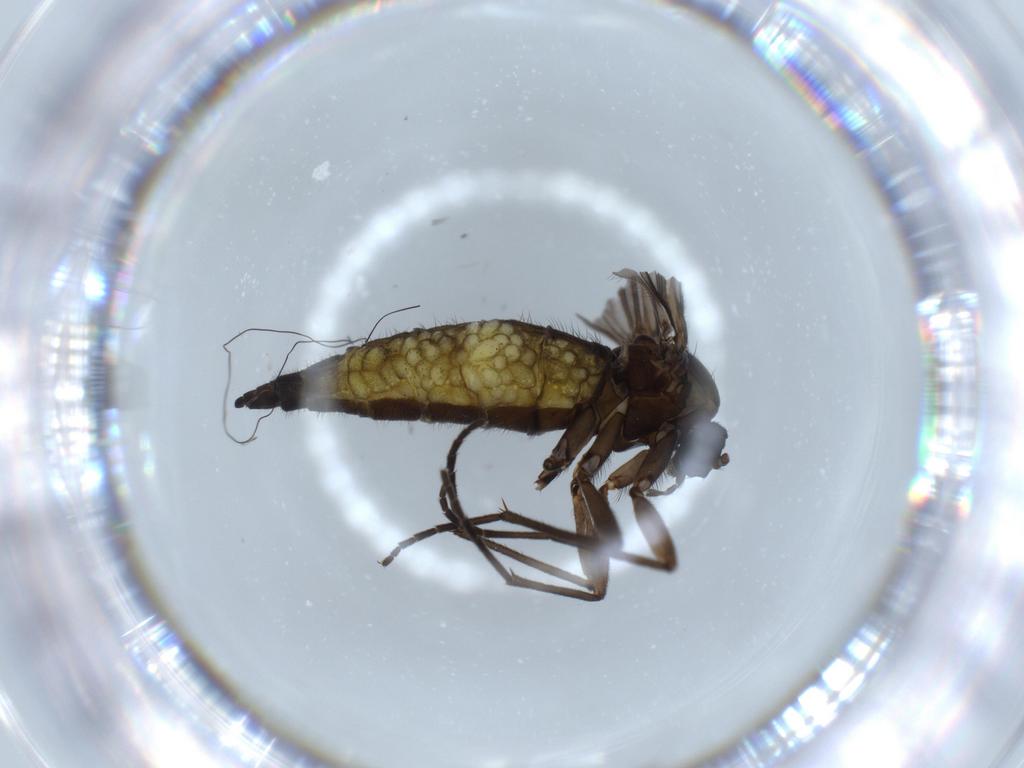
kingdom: Animalia
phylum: Arthropoda
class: Insecta
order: Diptera
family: Sciaridae
